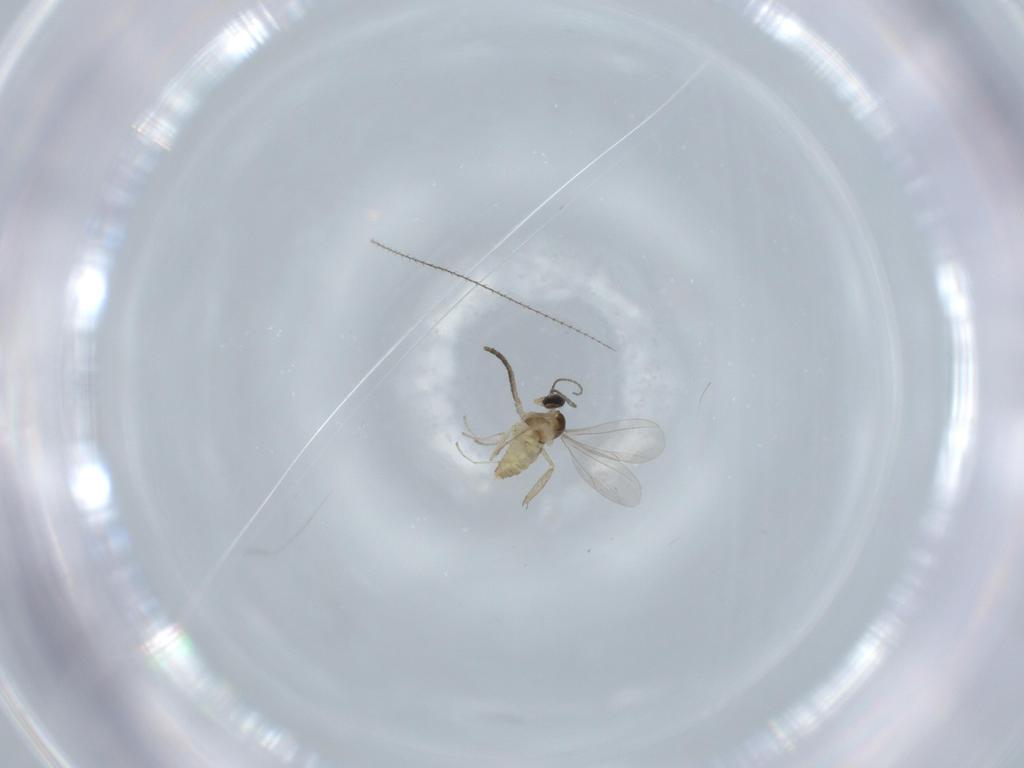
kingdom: Animalia
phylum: Arthropoda
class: Insecta
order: Diptera
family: Cecidomyiidae
